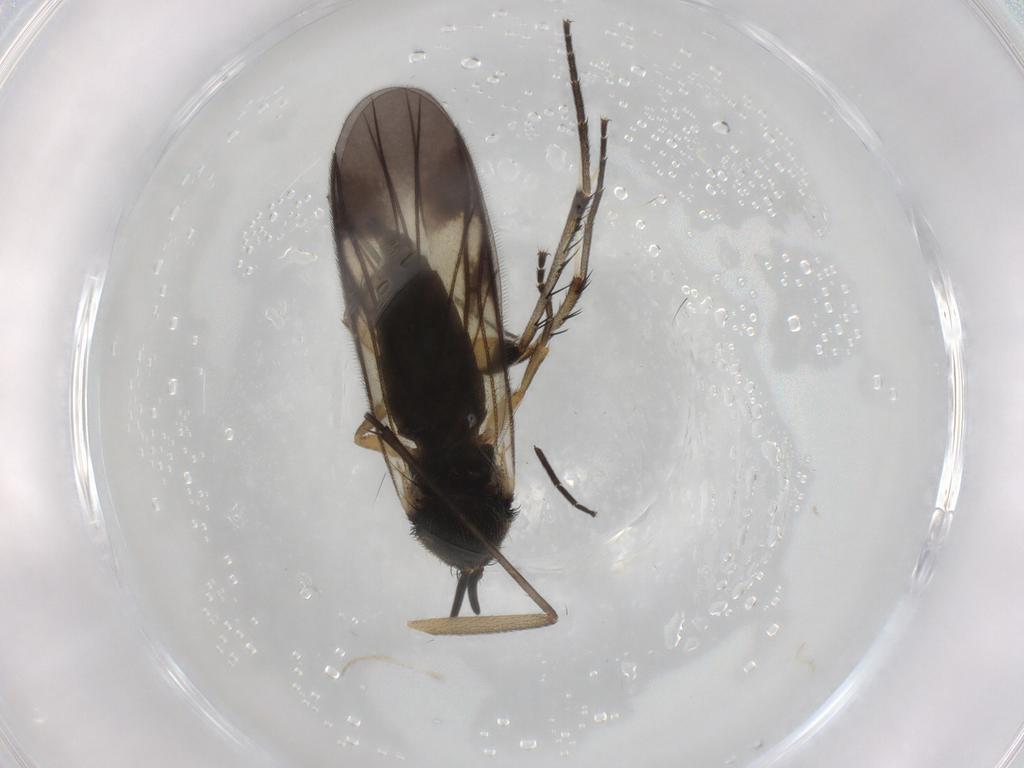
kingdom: Animalia
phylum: Arthropoda
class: Insecta
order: Diptera
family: Mycetophilidae
